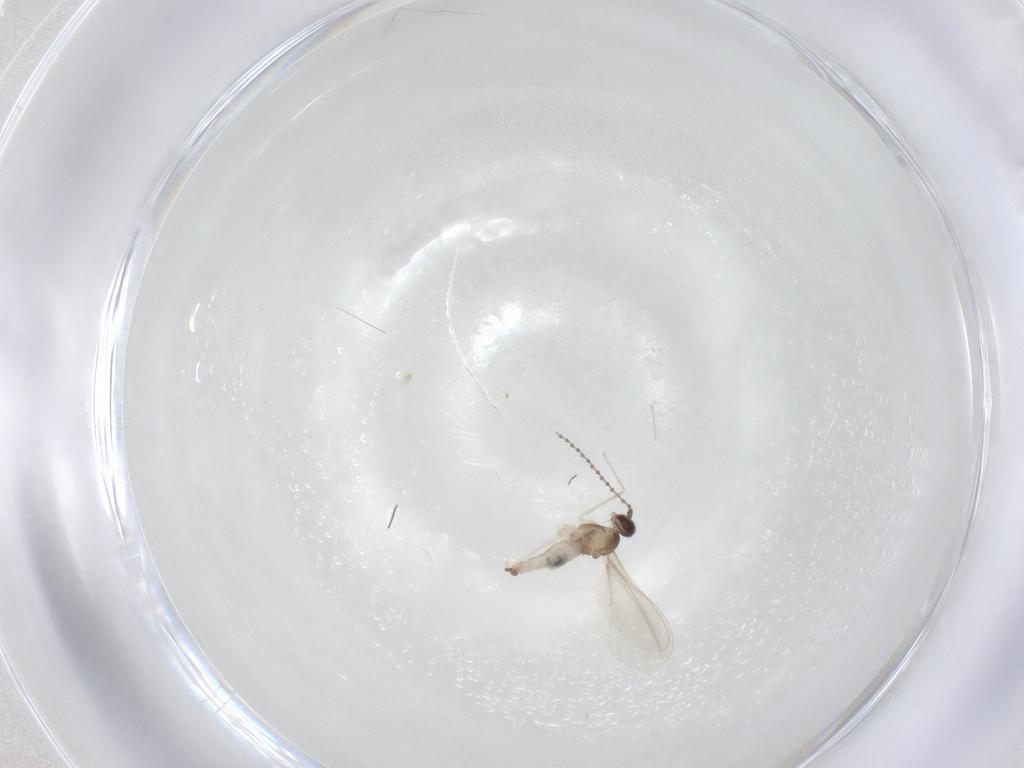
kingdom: Animalia
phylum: Arthropoda
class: Insecta
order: Diptera
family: Cecidomyiidae
